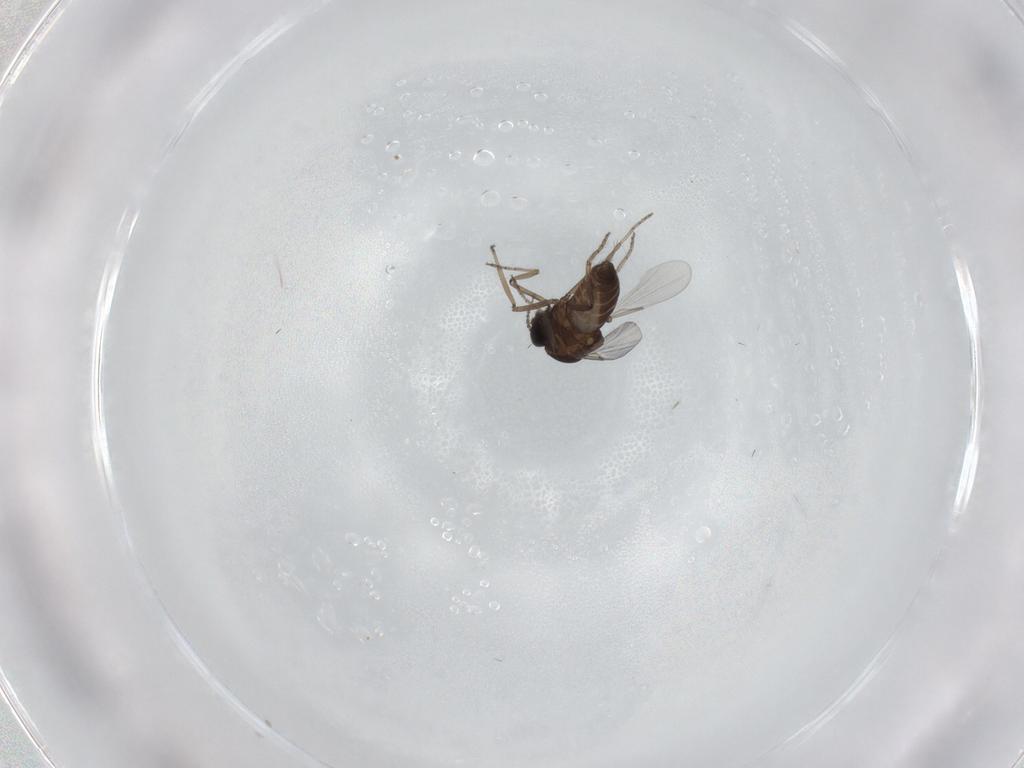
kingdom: Animalia
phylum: Arthropoda
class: Insecta
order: Diptera
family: Ceratopogonidae
